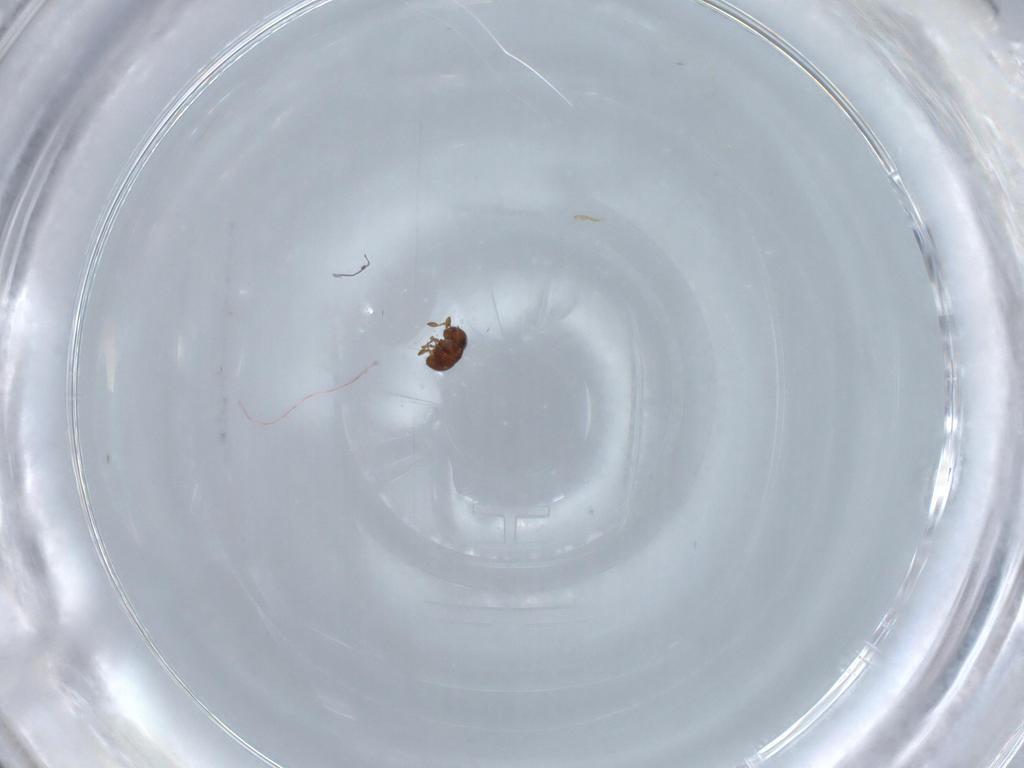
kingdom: Animalia
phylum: Arthropoda
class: Insecta
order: Hymenoptera
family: Scelionidae
